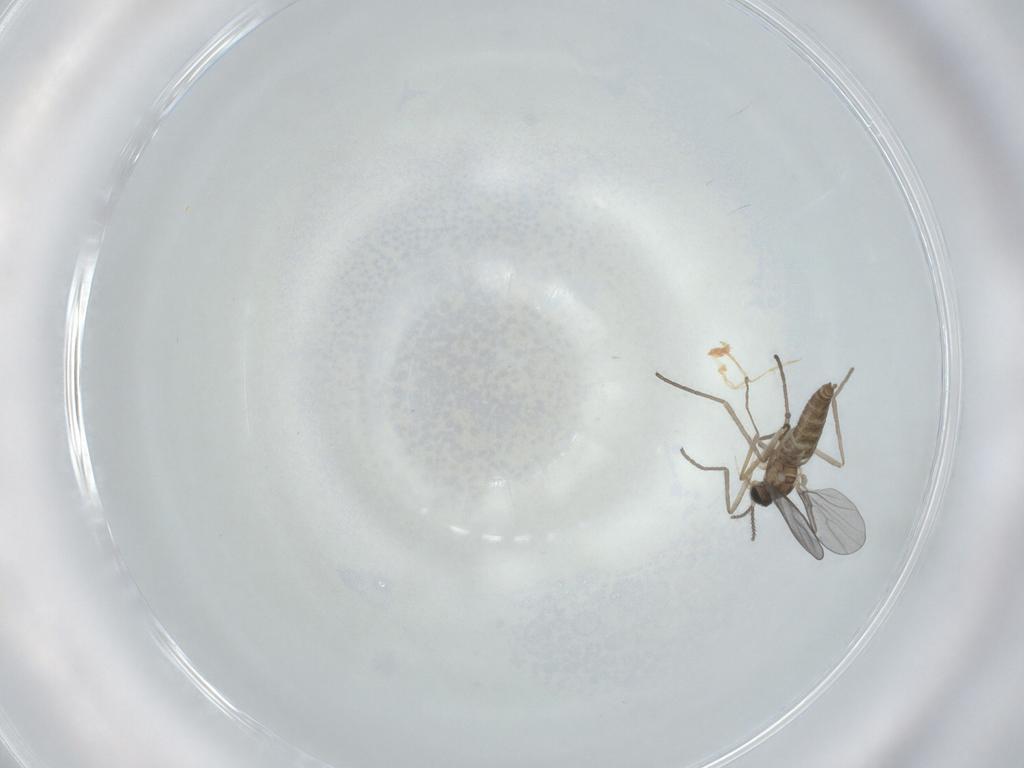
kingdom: Animalia
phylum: Arthropoda
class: Insecta
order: Diptera
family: Cecidomyiidae
